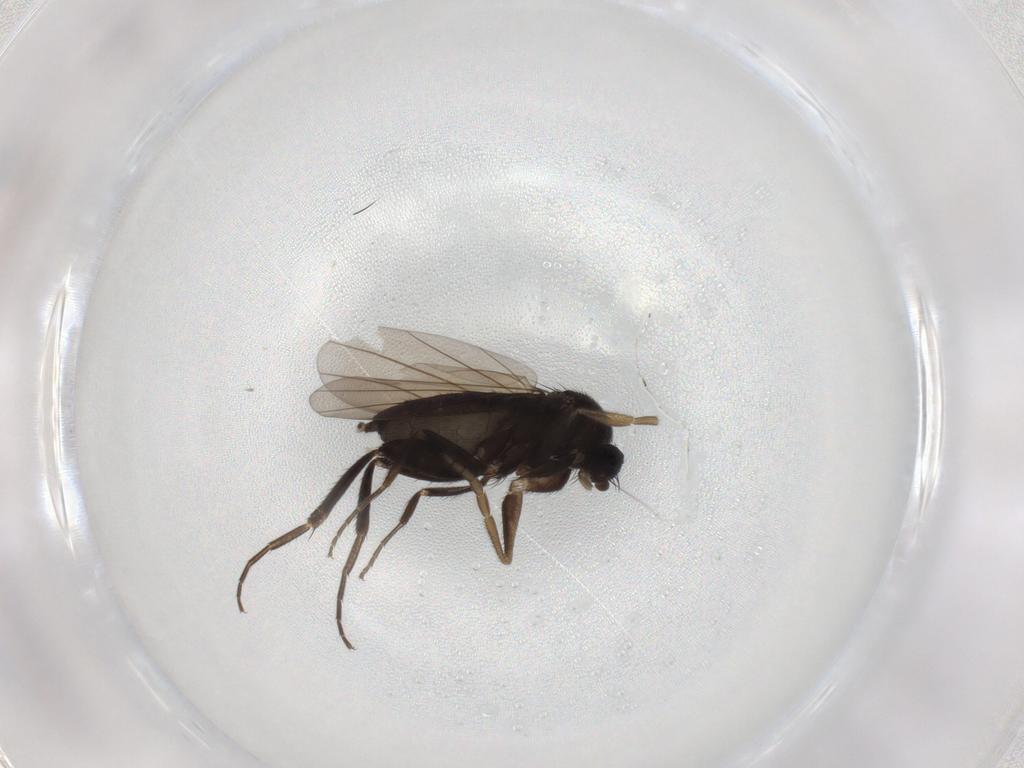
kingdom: Animalia
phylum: Arthropoda
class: Insecta
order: Diptera
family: Phoridae
